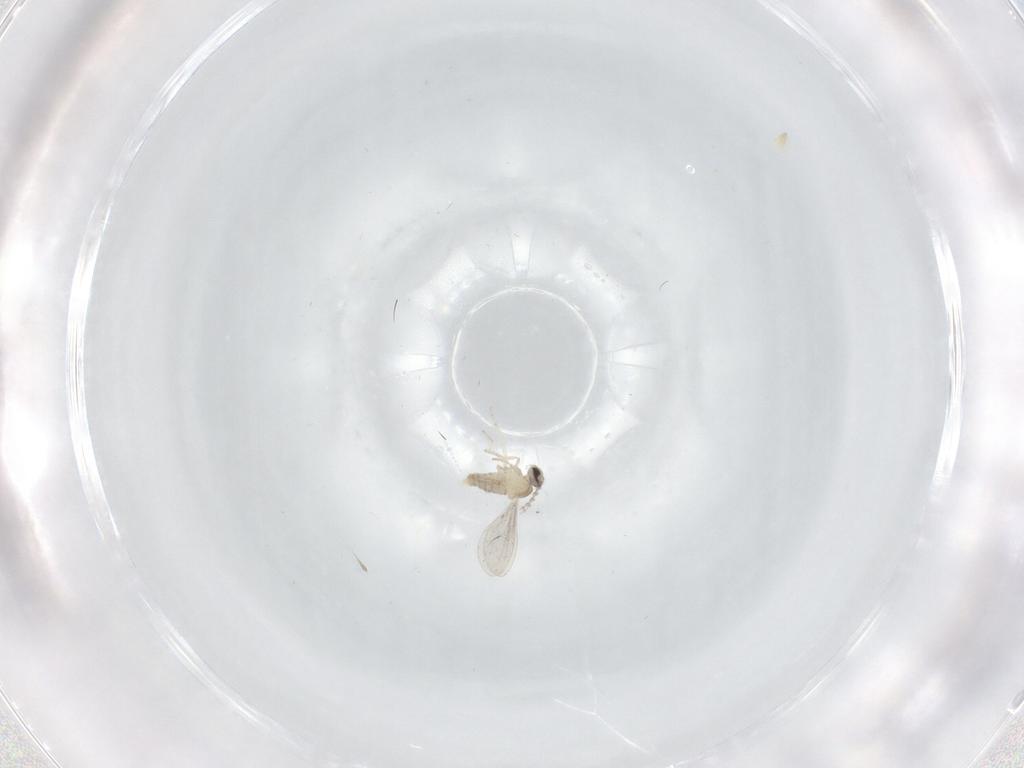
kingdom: Animalia
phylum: Arthropoda
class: Insecta
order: Diptera
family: Cecidomyiidae
